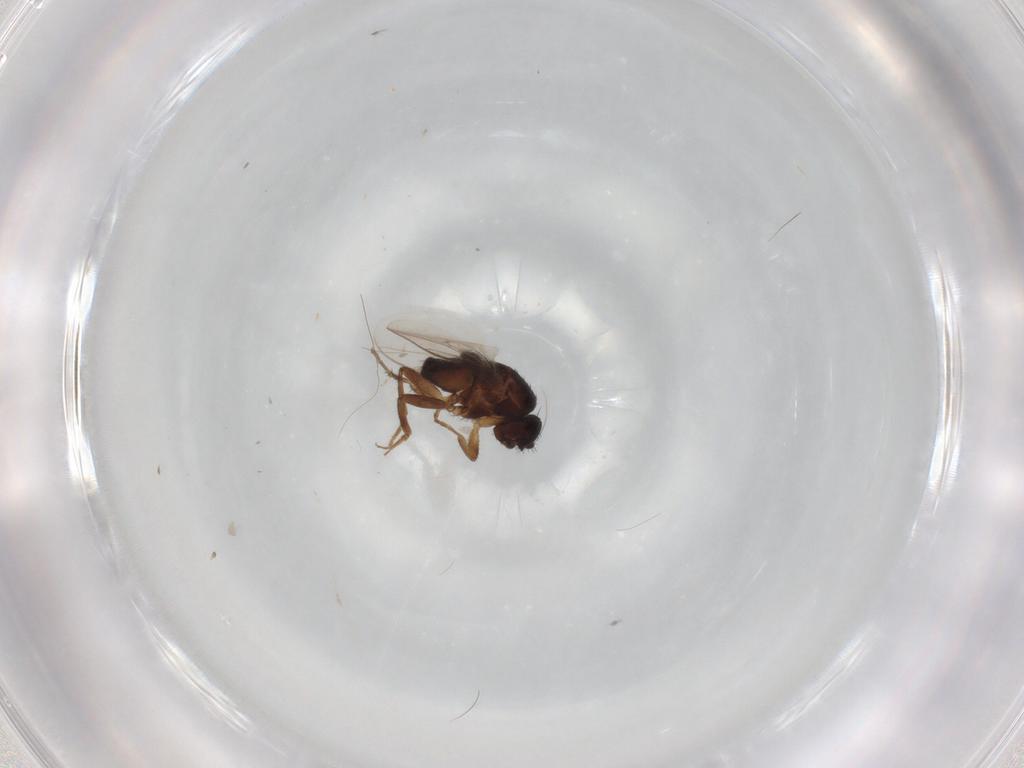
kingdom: Animalia
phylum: Arthropoda
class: Insecta
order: Diptera
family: Sphaeroceridae
